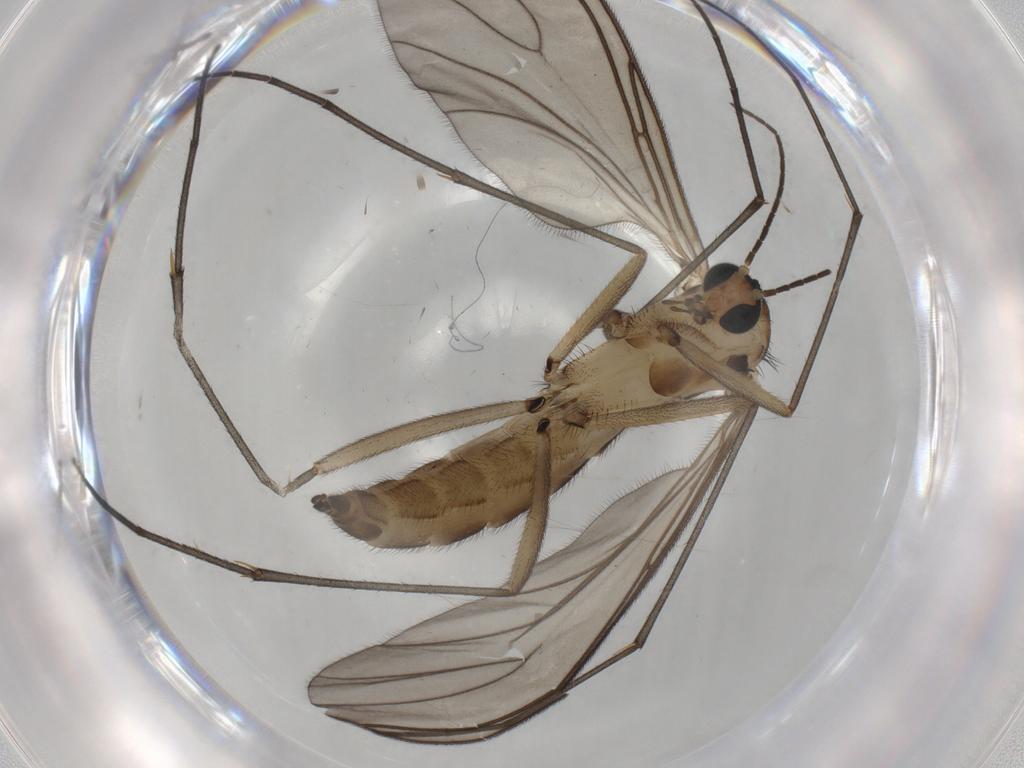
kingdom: Animalia
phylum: Arthropoda
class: Insecta
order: Diptera
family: Sciaridae
